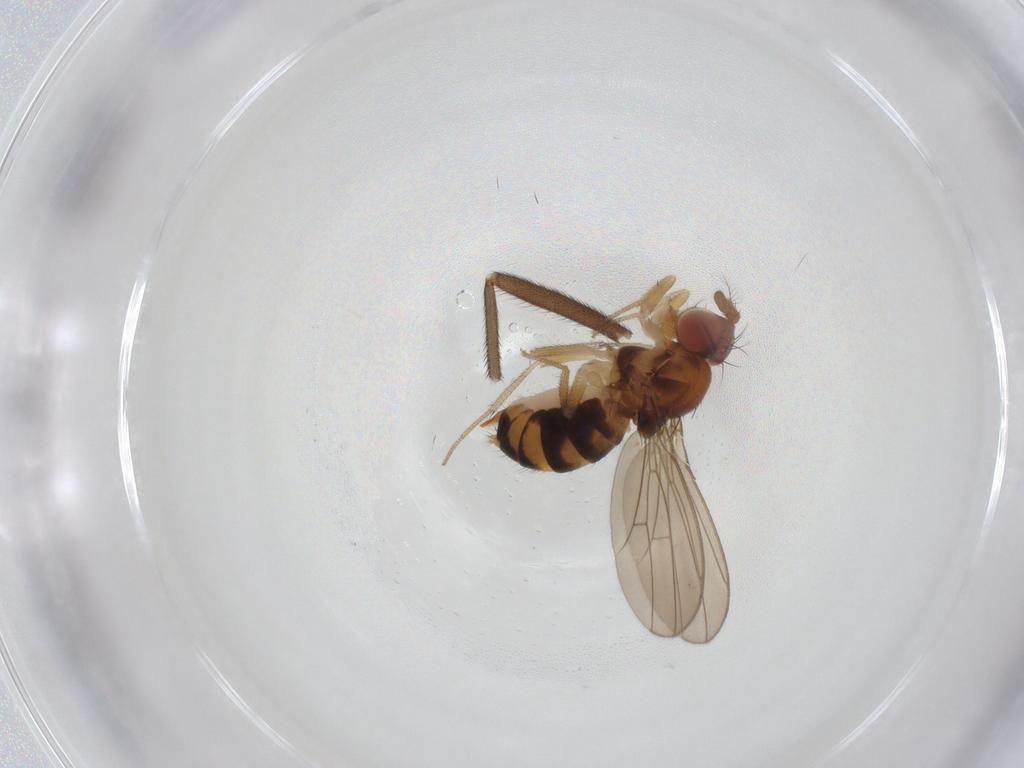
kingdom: Animalia
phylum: Arthropoda
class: Insecta
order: Diptera
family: Drosophilidae
